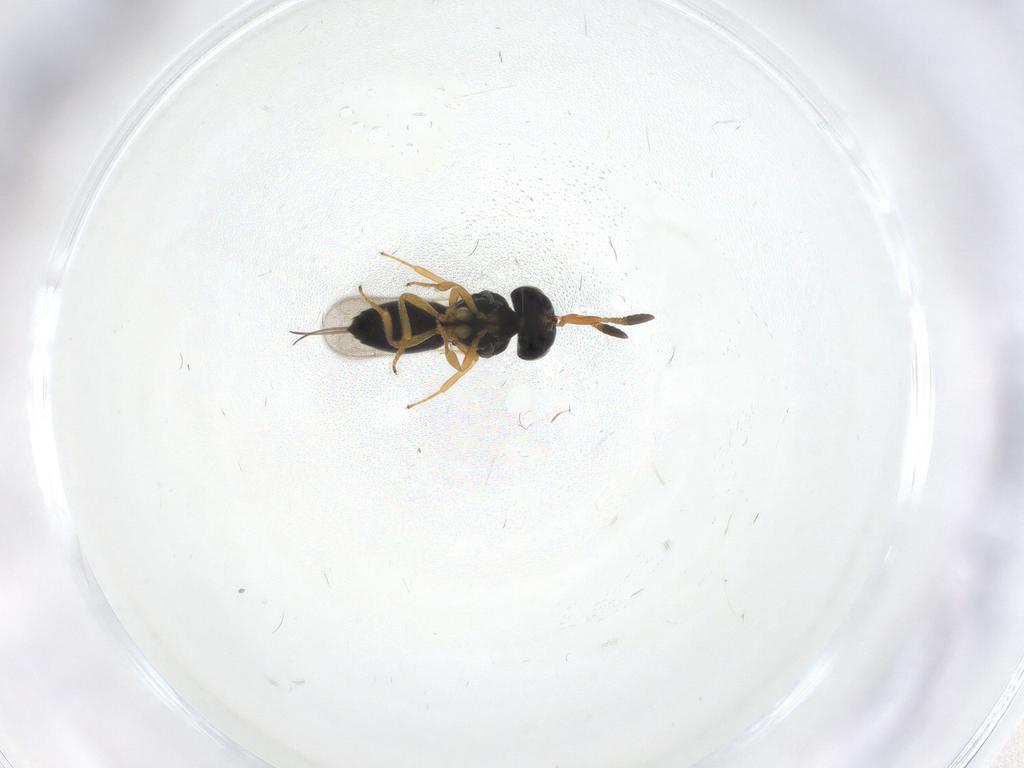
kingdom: Animalia
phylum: Arthropoda
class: Insecta
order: Hymenoptera
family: Scelionidae
